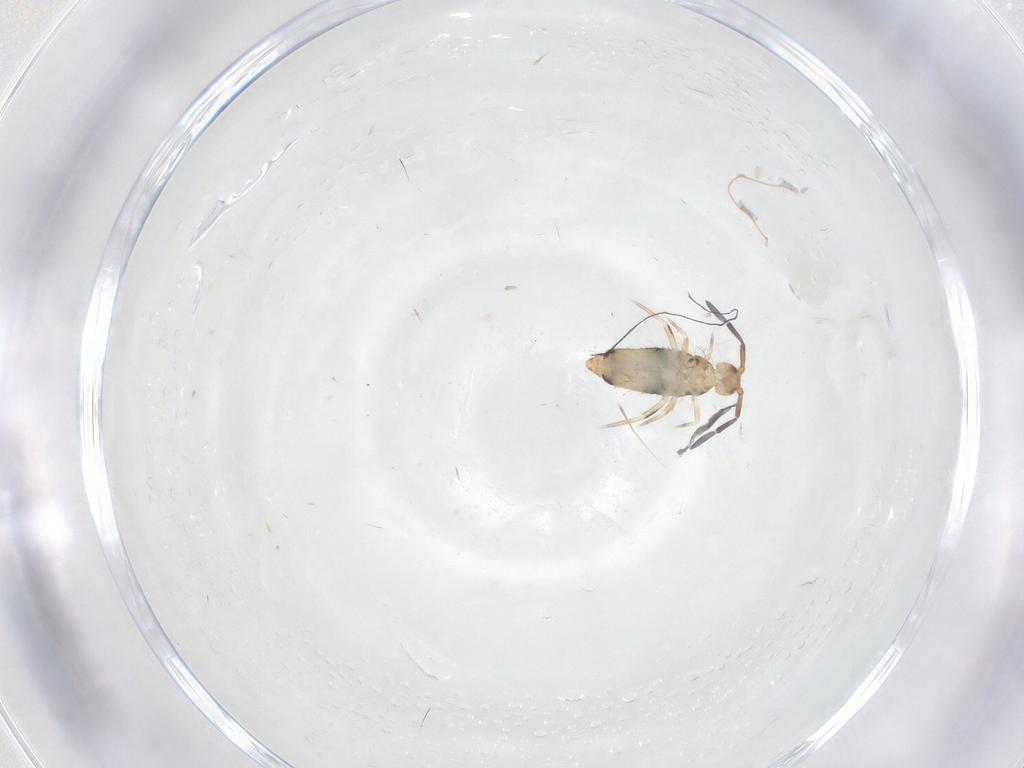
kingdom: Animalia
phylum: Arthropoda
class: Collembola
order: Entomobryomorpha
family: Entomobryidae
